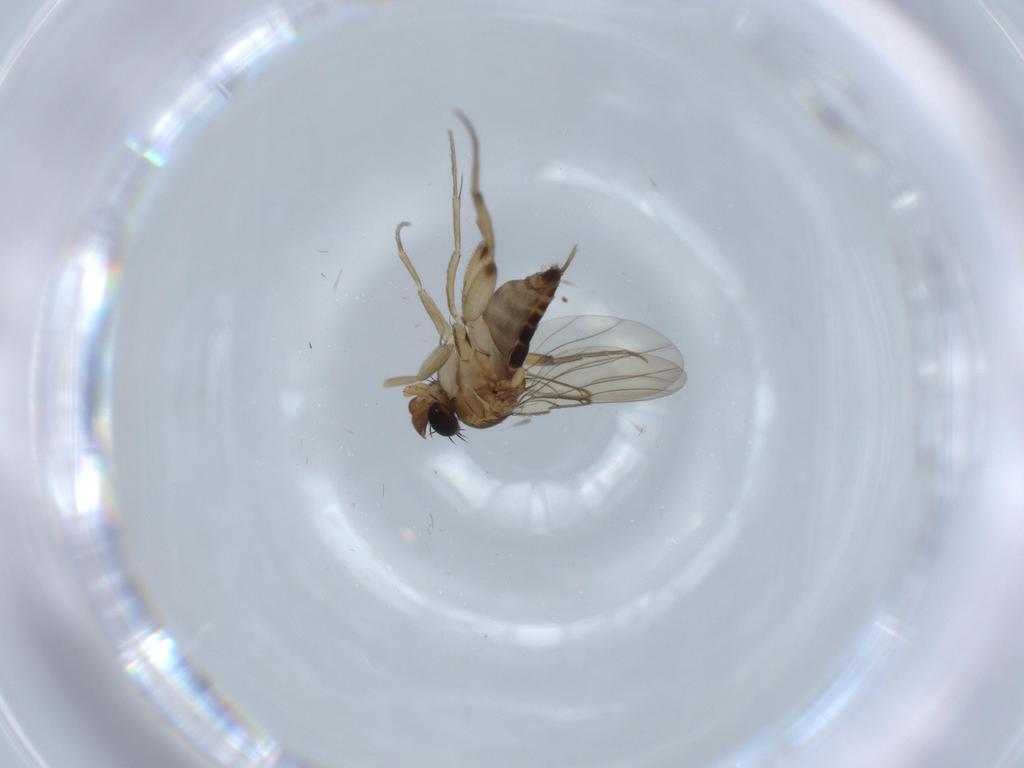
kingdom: Animalia
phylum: Arthropoda
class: Insecta
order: Diptera
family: Phoridae
